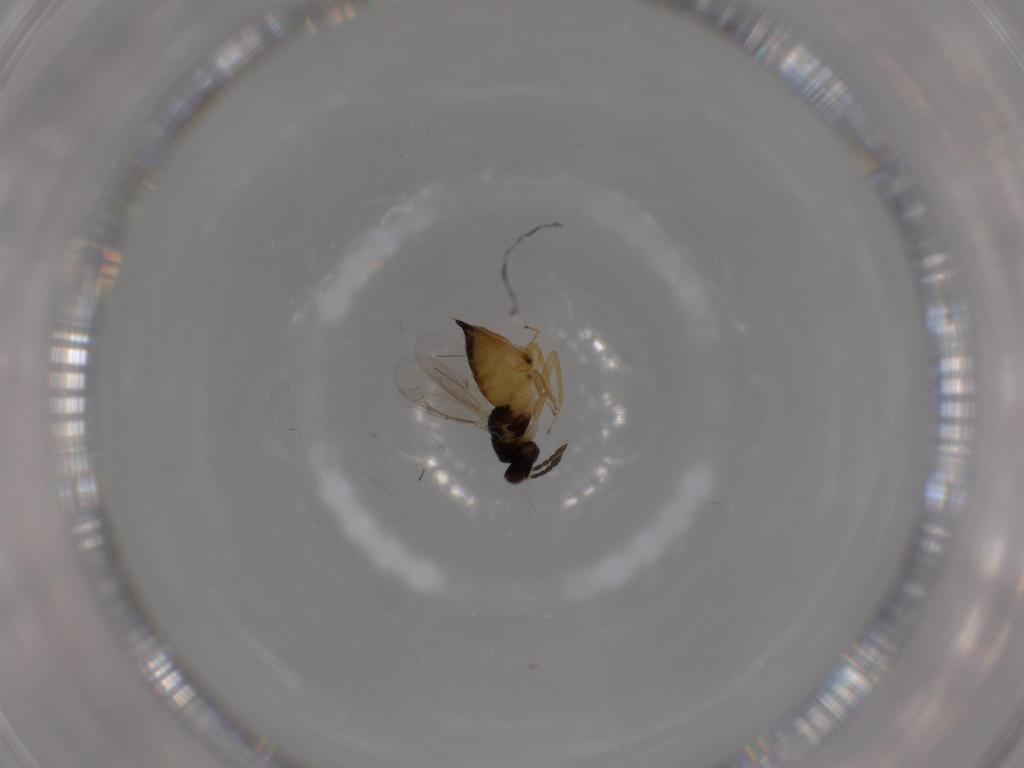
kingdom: Animalia
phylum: Arthropoda
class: Insecta
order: Hymenoptera
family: Eulophidae
